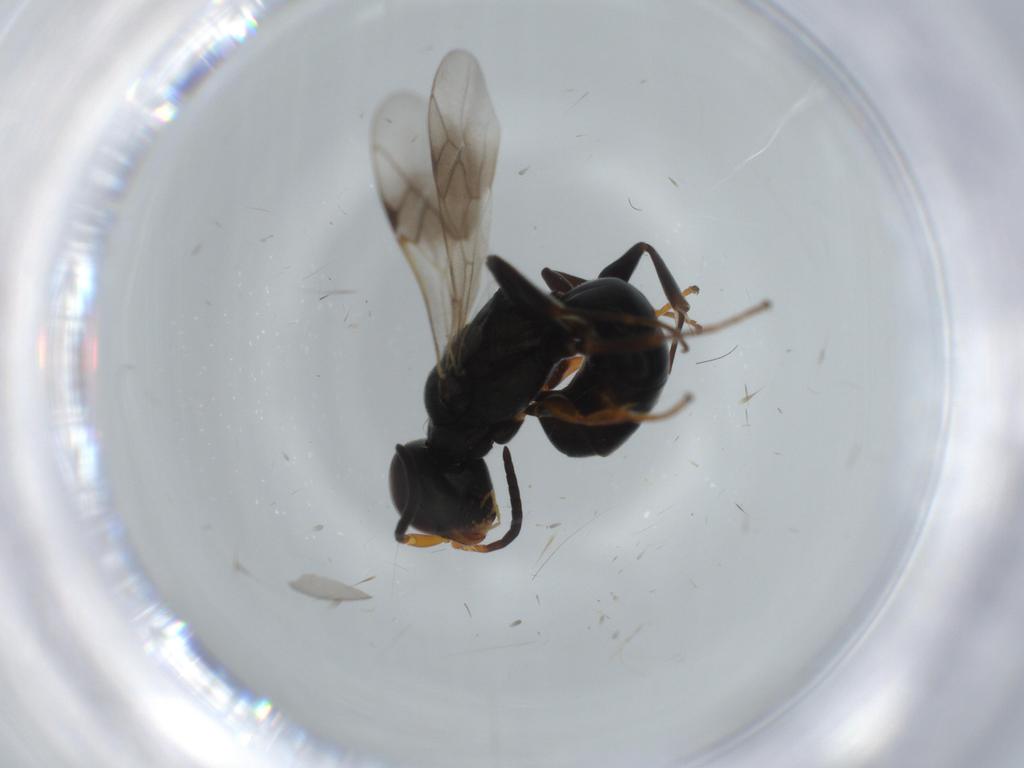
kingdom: Animalia
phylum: Arthropoda
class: Insecta
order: Hymenoptera
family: Crabronidae
